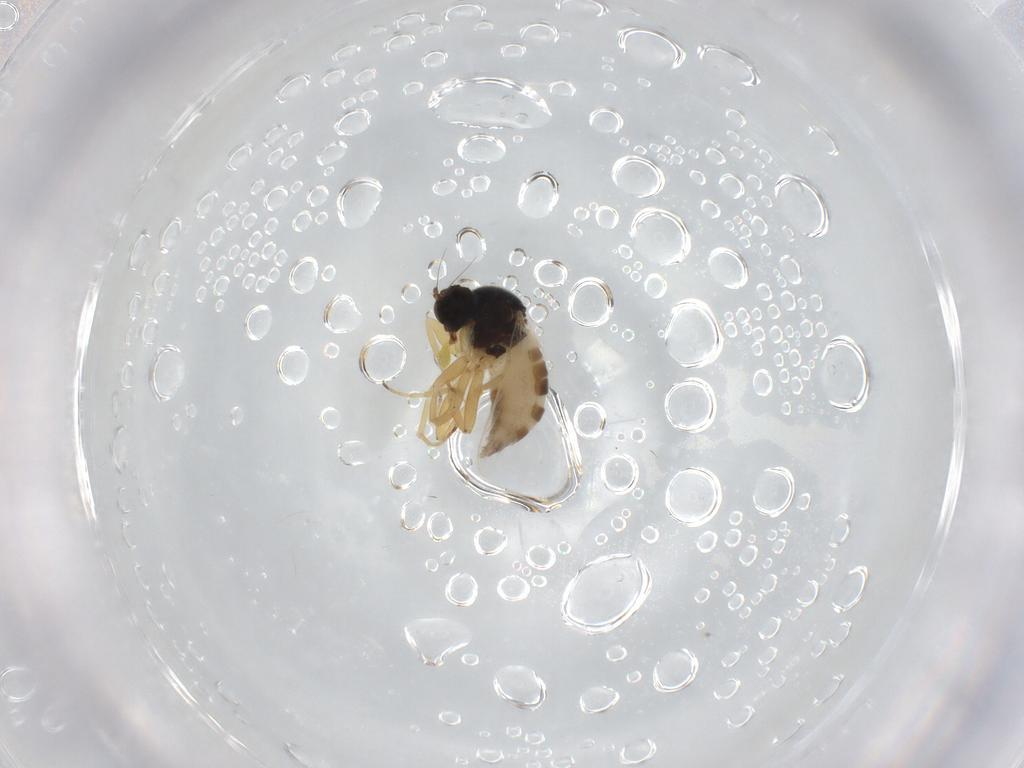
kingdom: Animalia
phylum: Arthropoda
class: Insecta
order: Diptera
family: Hybotidae
